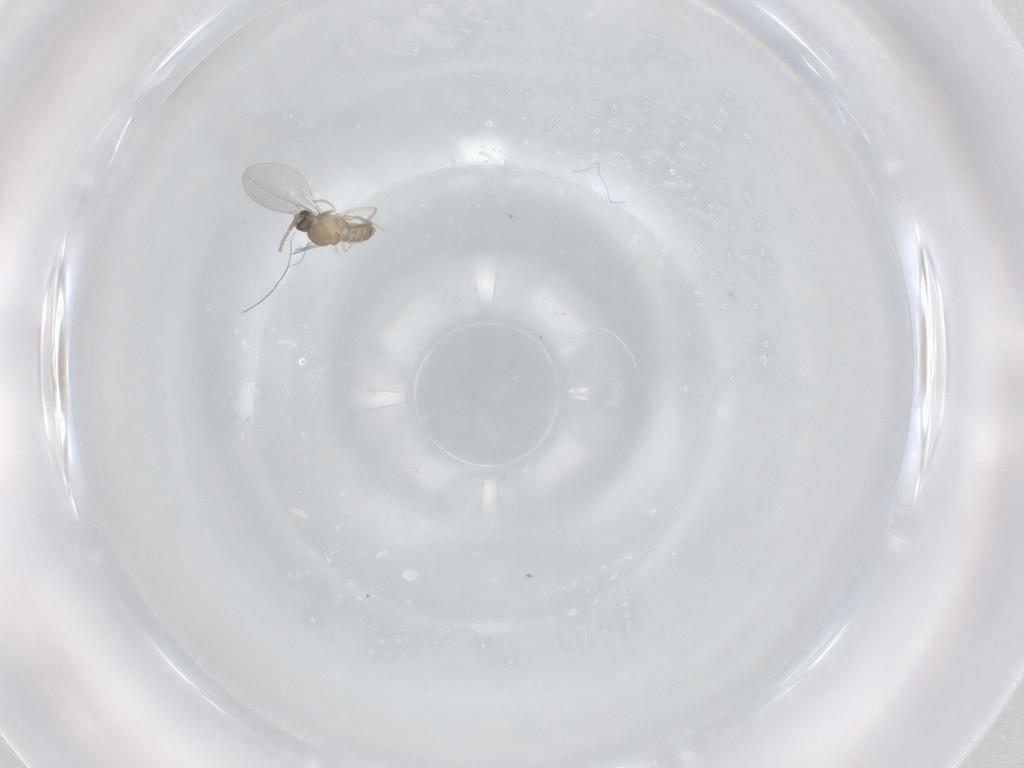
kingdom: Animalia
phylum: Arthropoda
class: Insecta
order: Diptera
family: Cecidomyiidae
